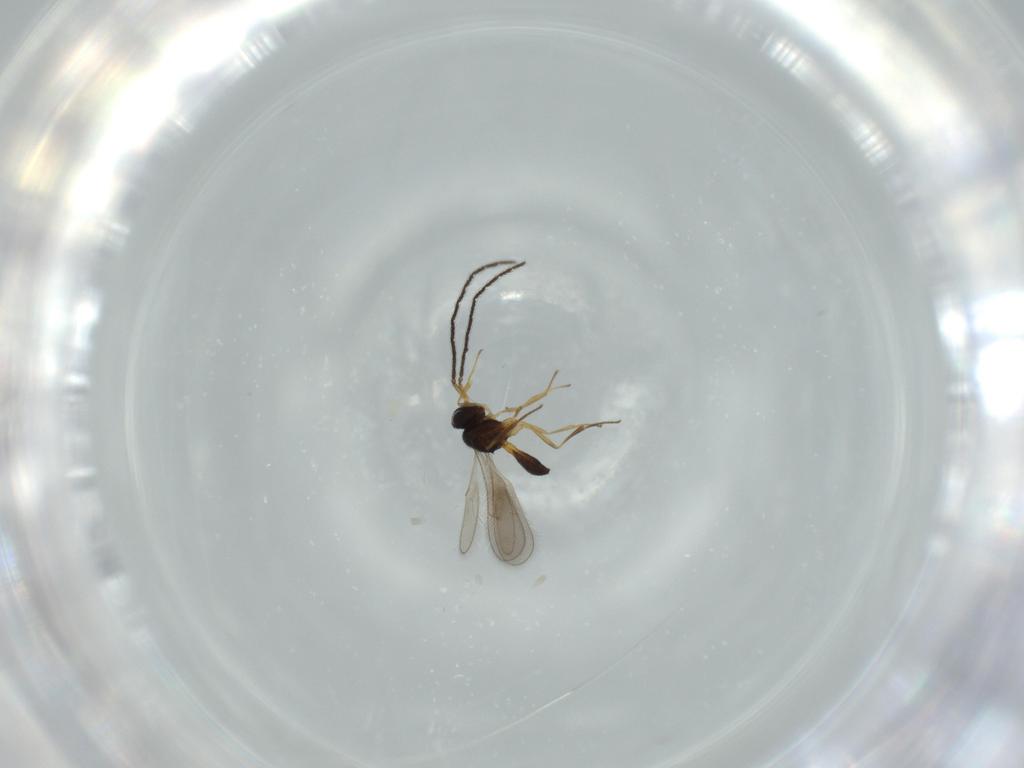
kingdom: Animalia
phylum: Arthropoda
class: Insecta
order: Hymenoptera
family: Scelionidae
